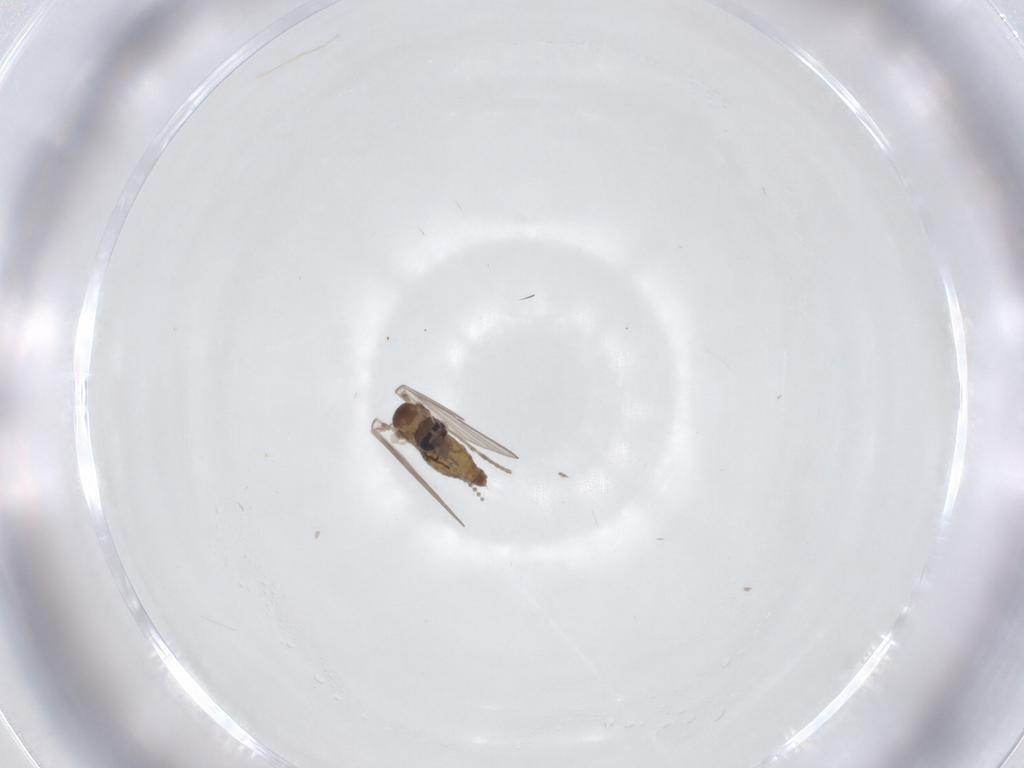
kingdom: Animalia
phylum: Arthropoda
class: Insecta
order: Diptera
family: Psychodidae
